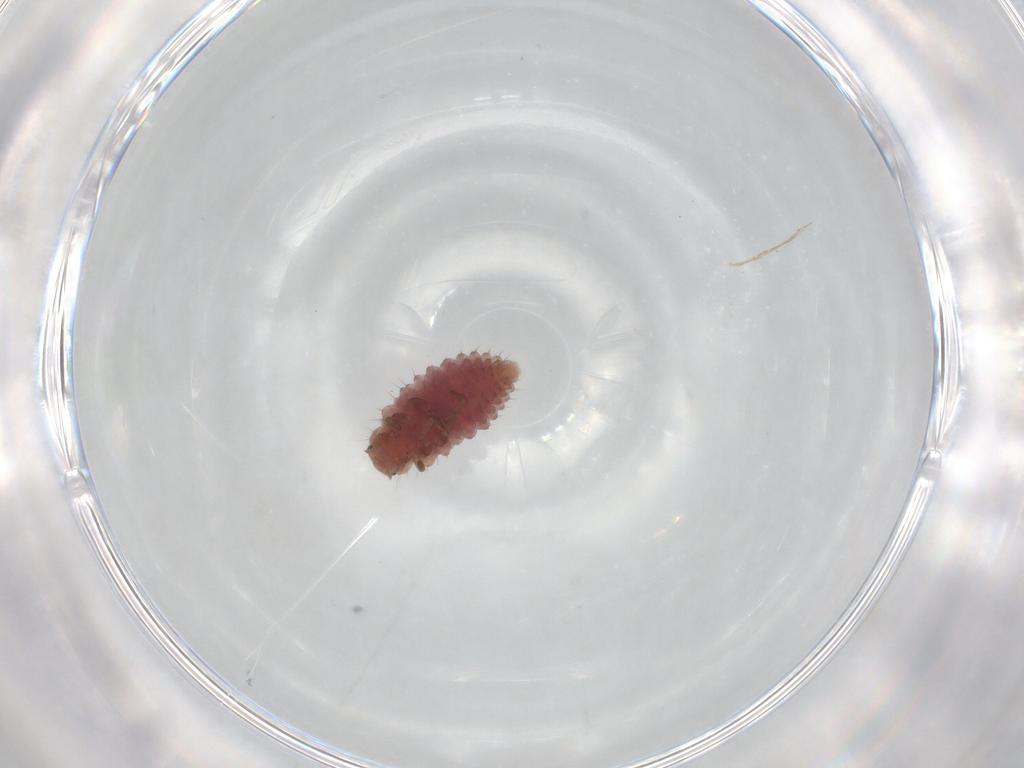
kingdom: Animalia
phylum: Arthropoda
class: Insecta
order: Coleoptera
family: Coccinellidae
